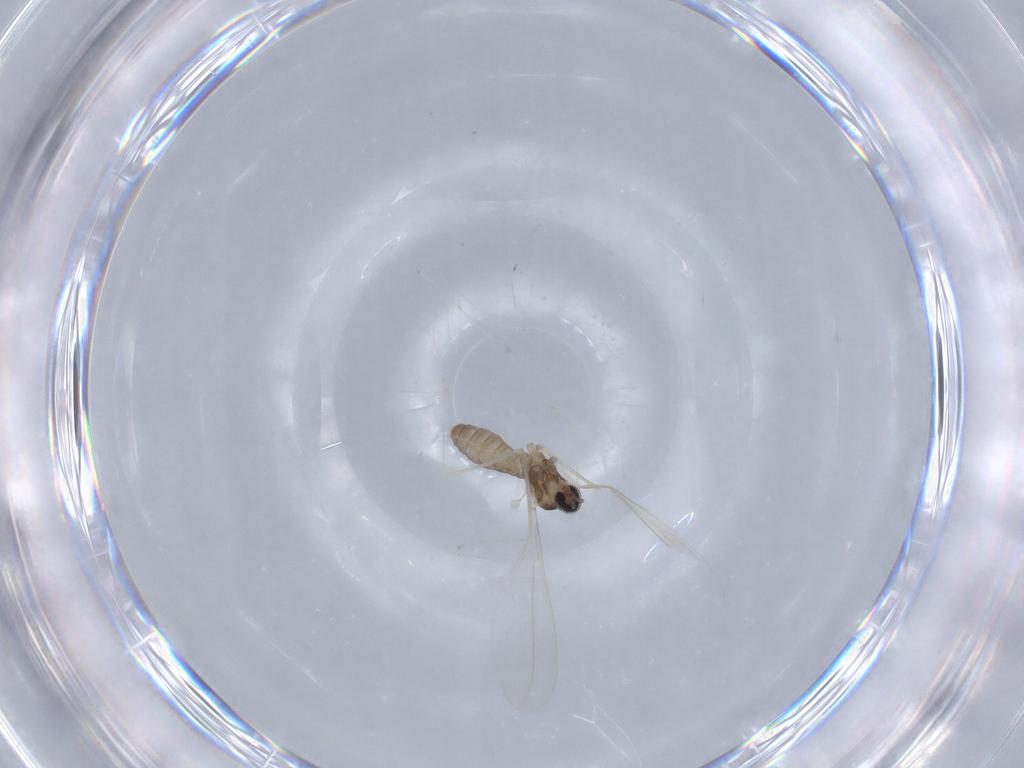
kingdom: Animalia
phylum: Arthropoda
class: Insecta
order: Diptera
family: Cecidomyiidae
